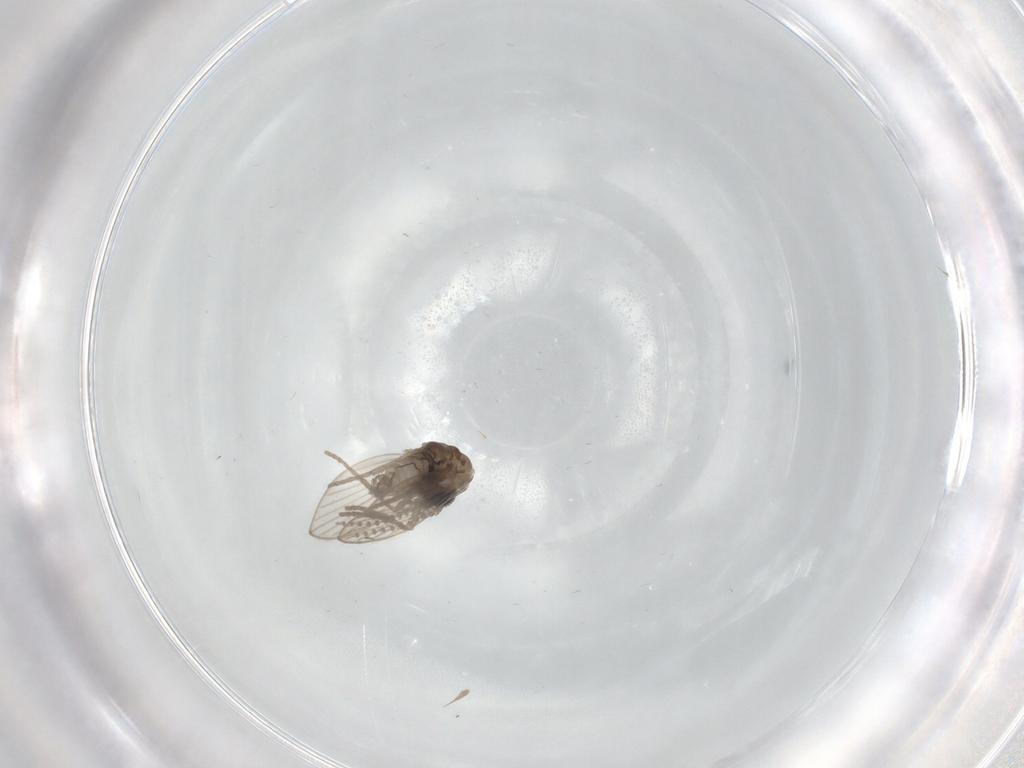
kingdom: Animalia
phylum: Arthropoda
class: Insecta
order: Diptera
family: Psychodidae
